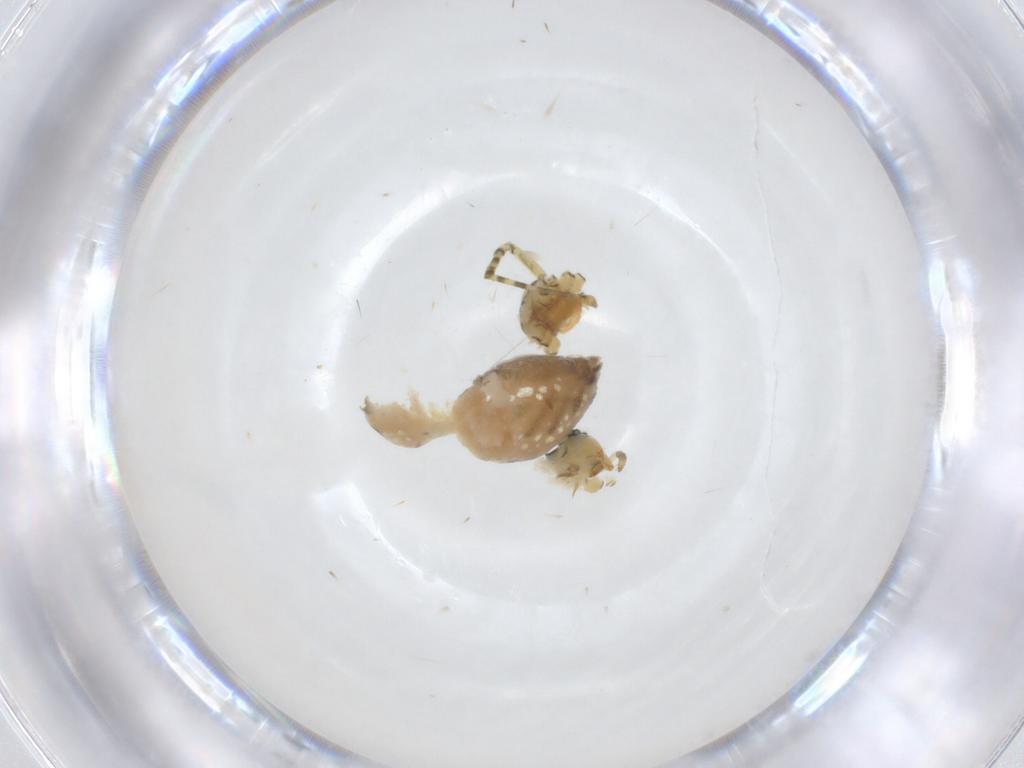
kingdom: Animalia
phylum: Arthropoda
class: Arachnida
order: Araneae
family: Linyphiidae
